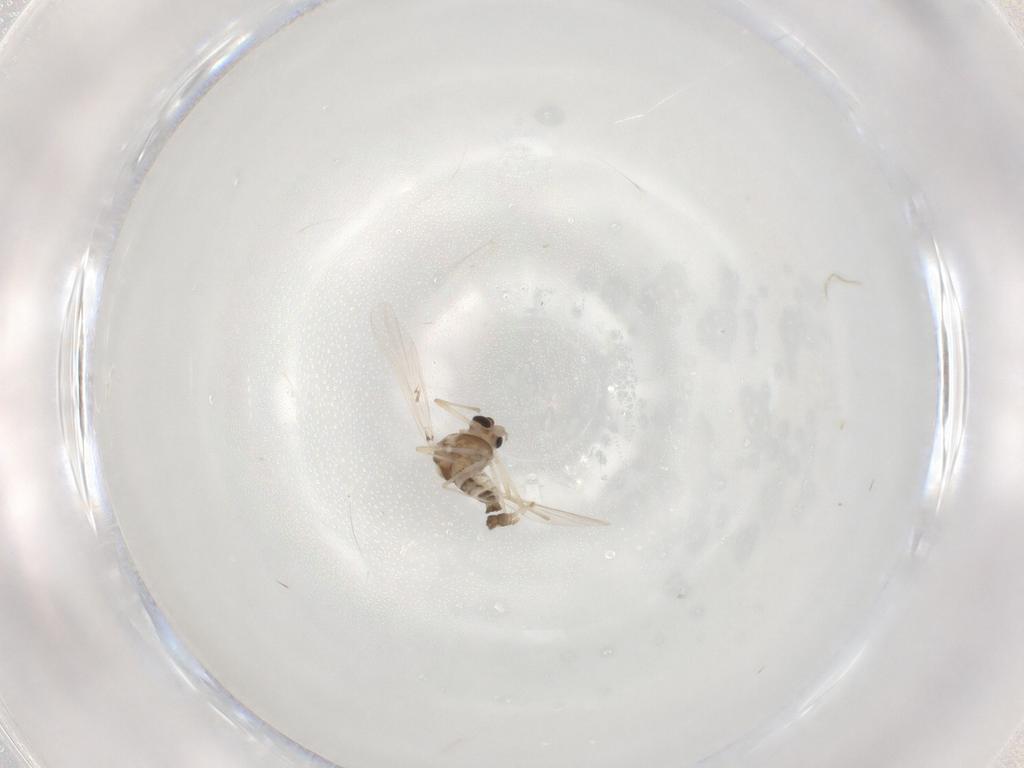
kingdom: Animalia
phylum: Arthropoda
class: Insecta
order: Diptera
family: Chironomidae
